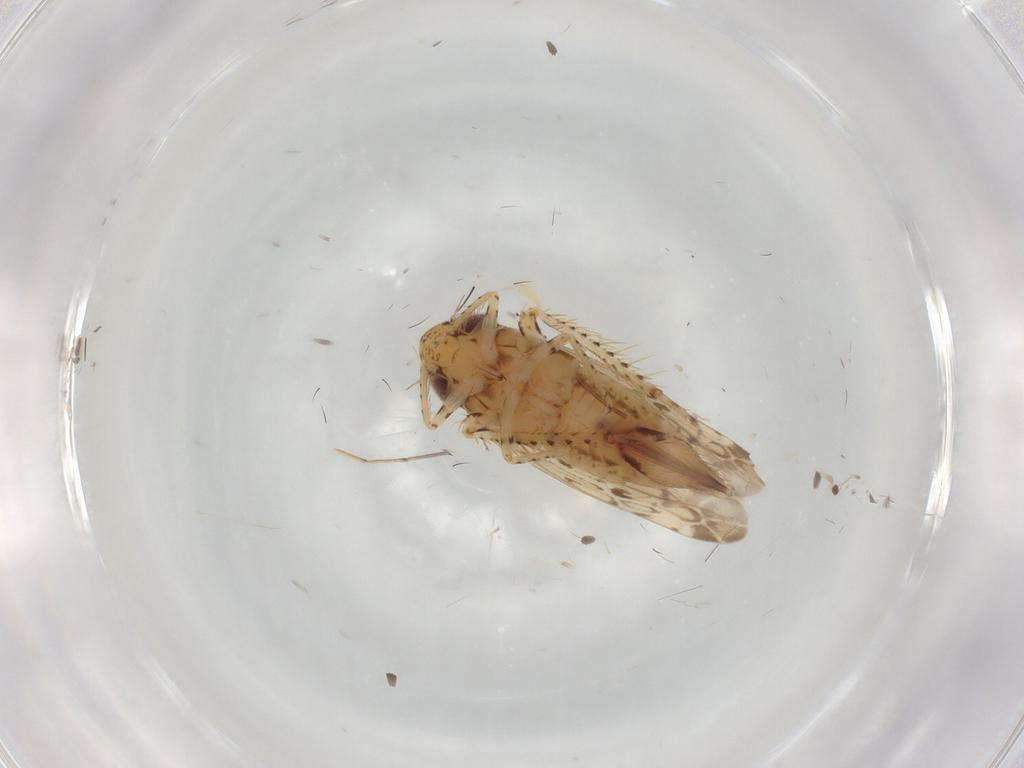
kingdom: Animalia
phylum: Arthropoda
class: Insecta
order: Hemiptera
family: Cicadellidae
